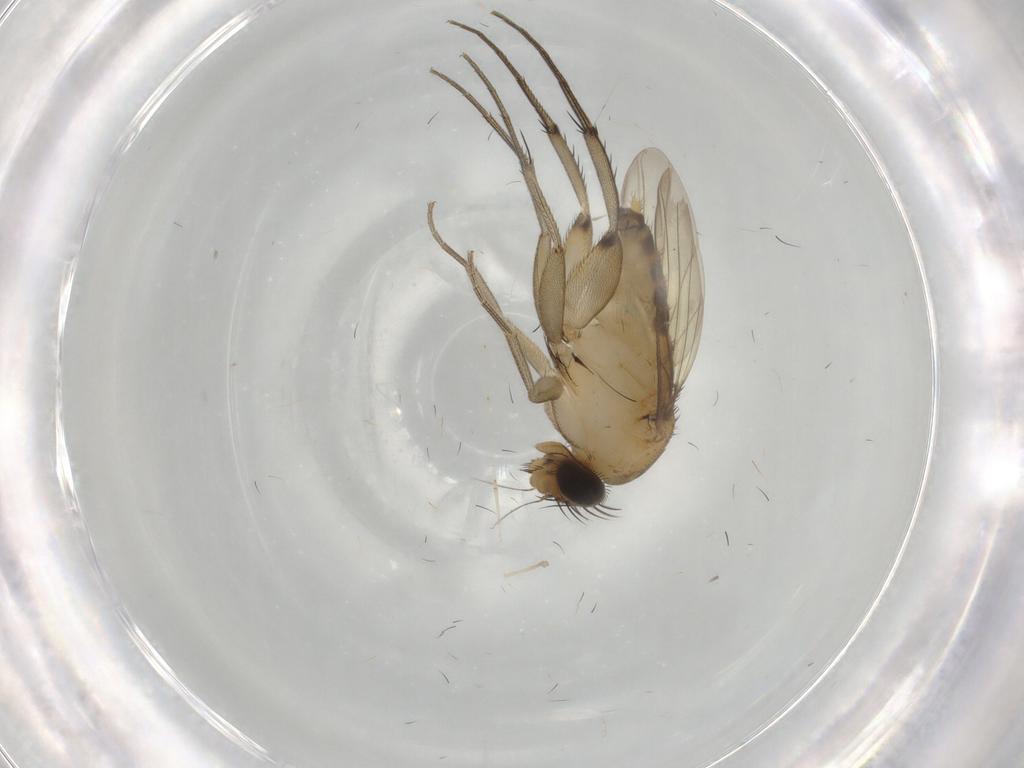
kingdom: Animalia
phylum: Arthropoda
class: Insecta
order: Diptera
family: Phoridae
